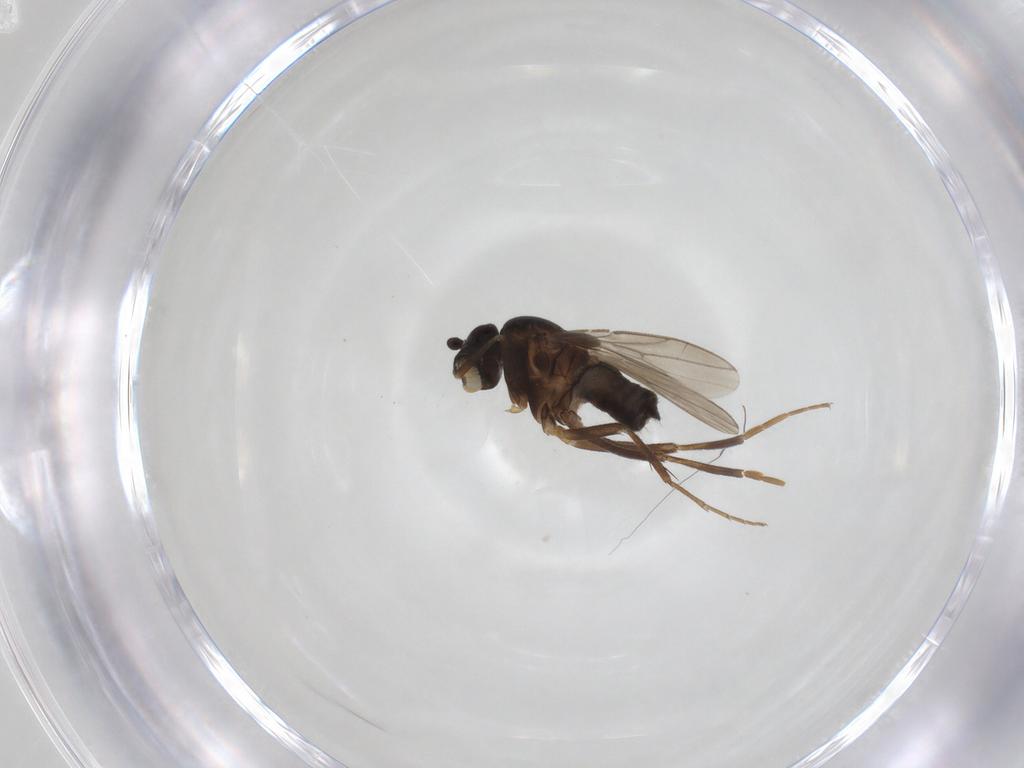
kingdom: Animalia
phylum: Arthropoda
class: Insecta
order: Diptera
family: Sphaeroceridae
